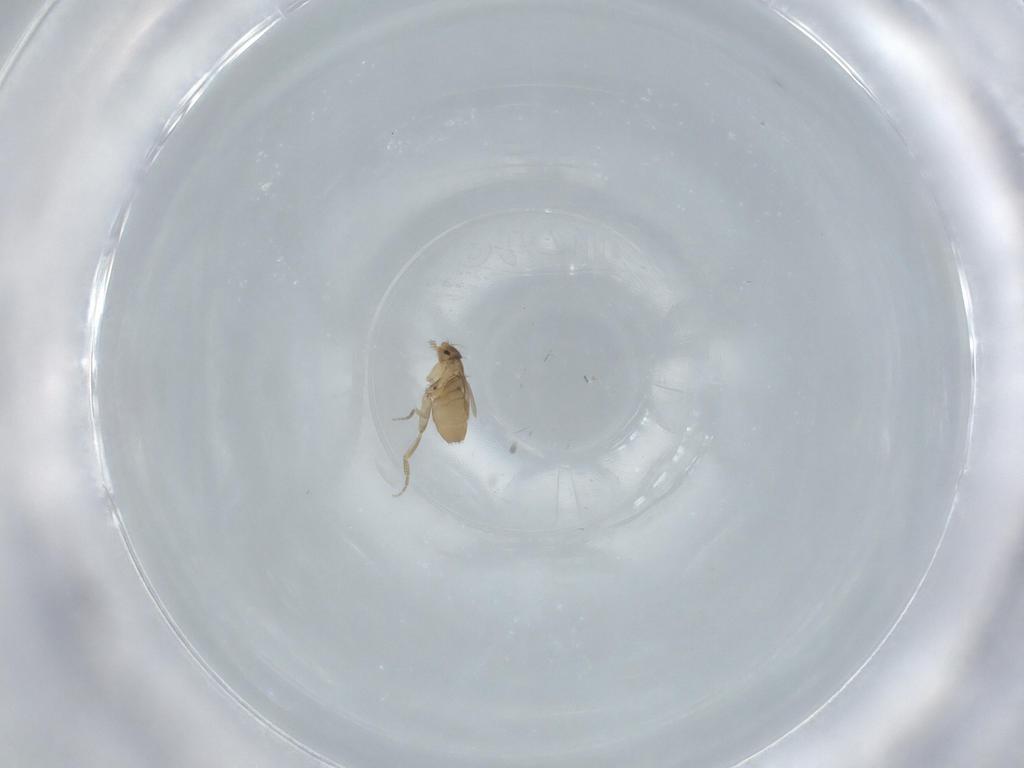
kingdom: Animalia
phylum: Arthropoda
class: Insecta
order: Diptera
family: Phoridae
